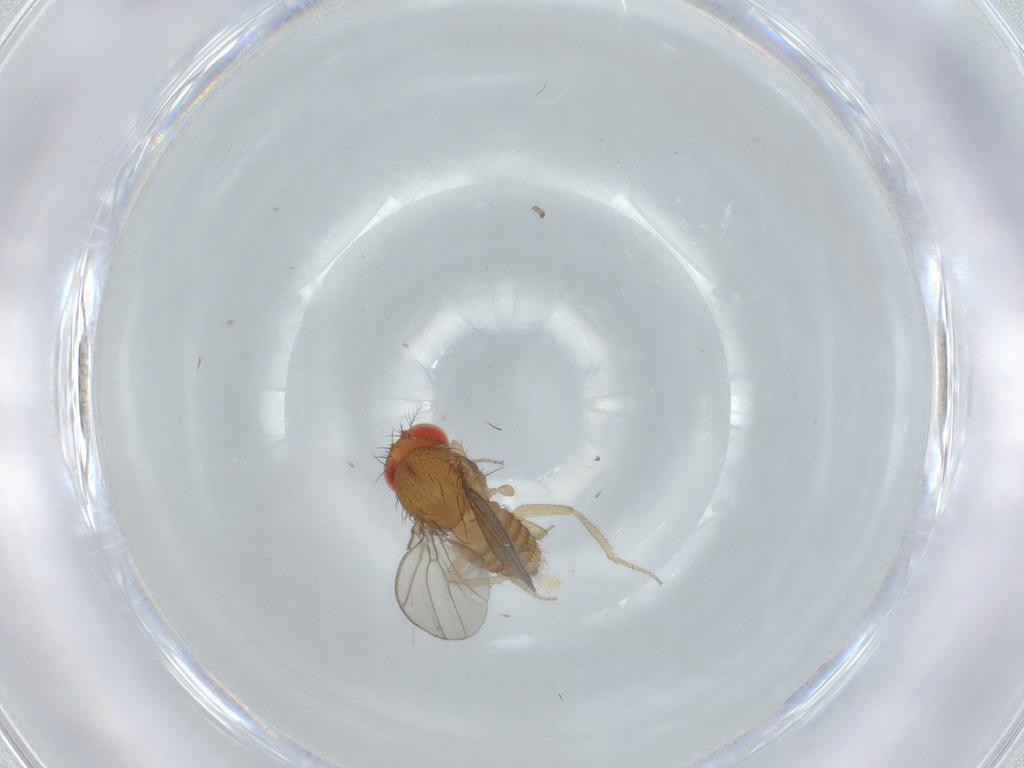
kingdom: Animalia
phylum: Arthropoda
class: Insecta
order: Diptera
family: Drosophilidae
